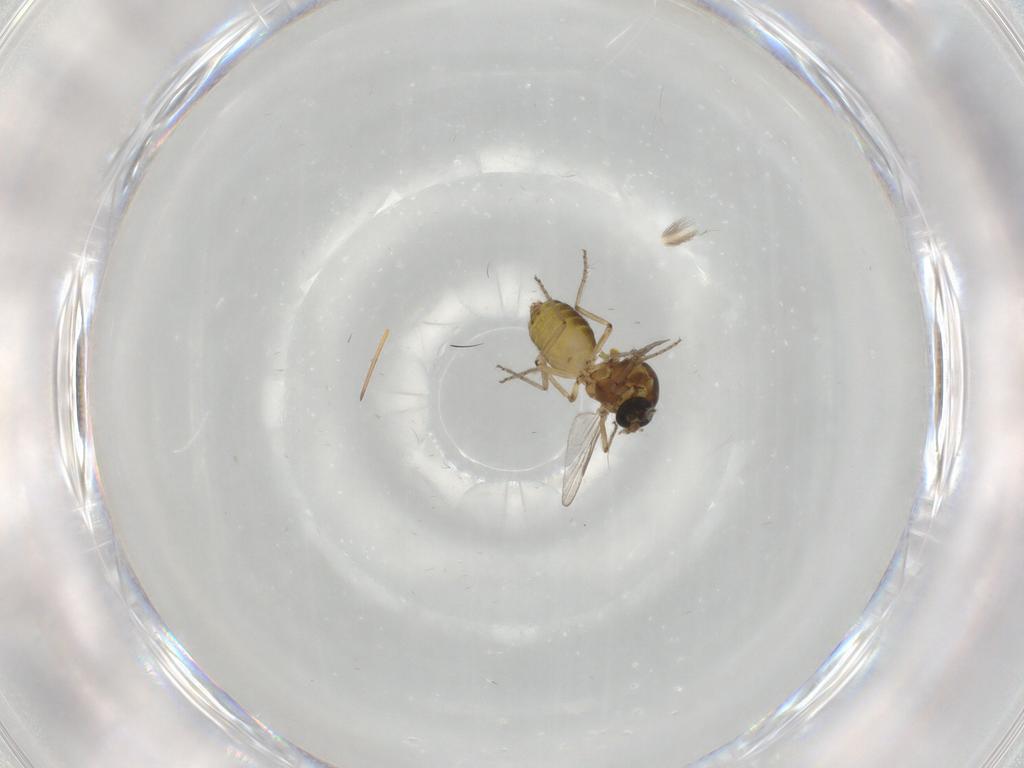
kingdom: Animalia
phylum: Arthropoda
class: Insecta
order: Diptera
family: Ceratopogonidae
